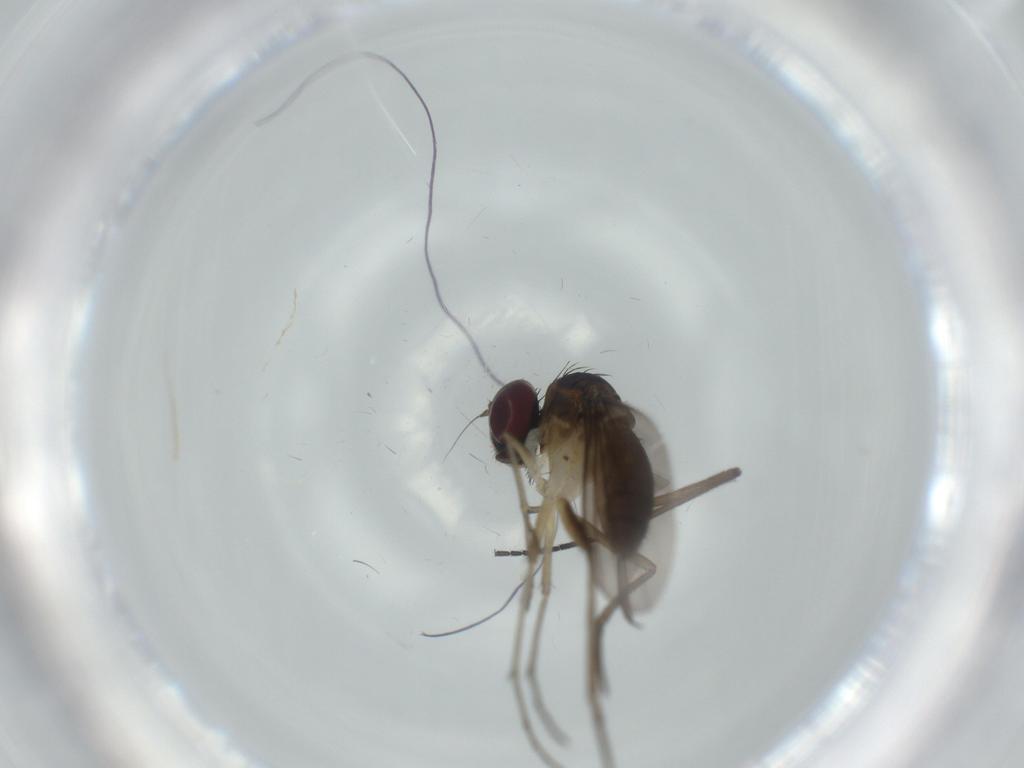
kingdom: Animalia
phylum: Arthropoda
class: Insecta
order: Diptera
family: Dolichopodidae
